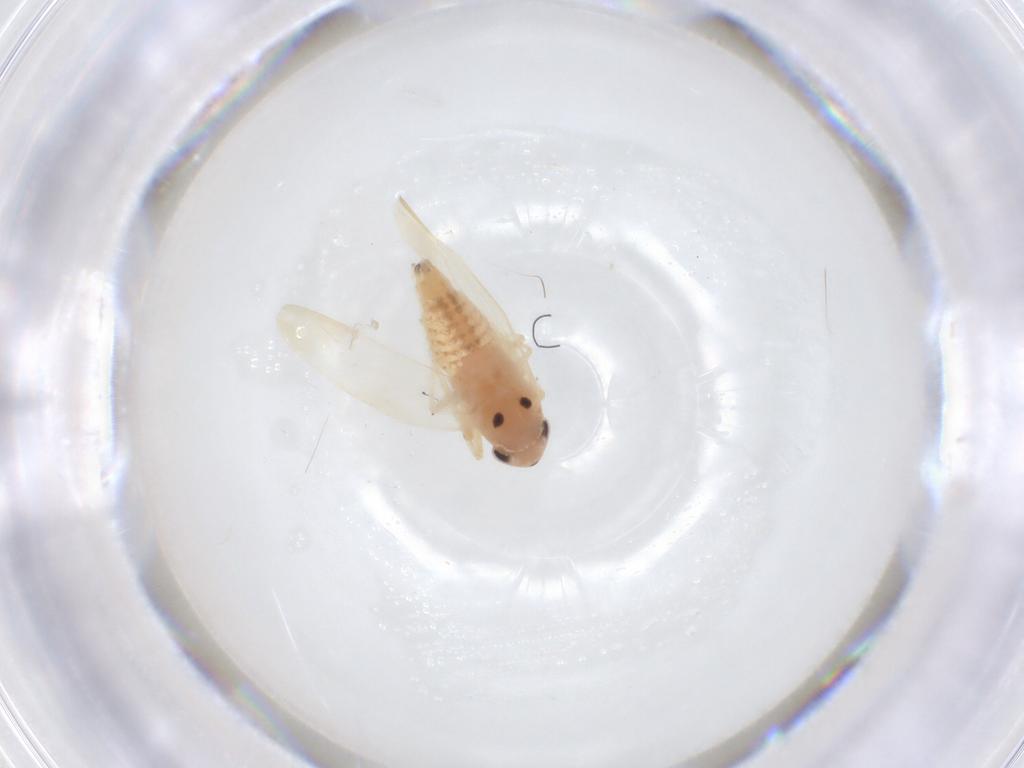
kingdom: Animalia
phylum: Arthropoda
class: Insecta
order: Hemiptera
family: Cicadellidae
